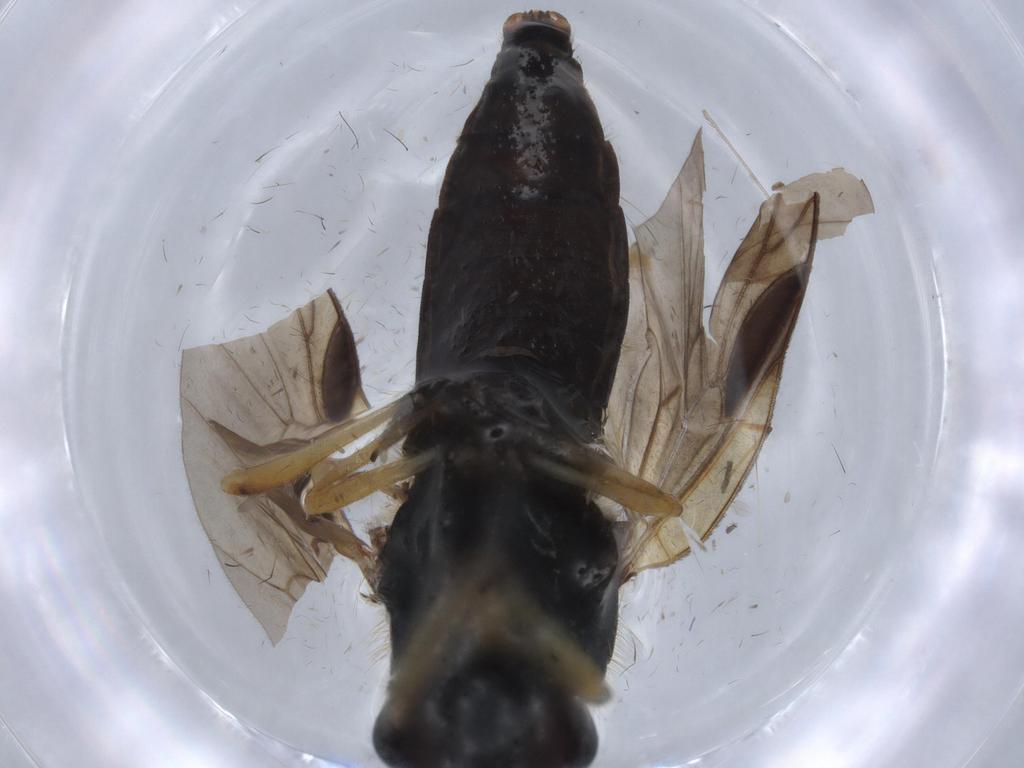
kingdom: Animalia
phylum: Arthropoda
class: Insecta
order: Diptera
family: Stratiomyidae
